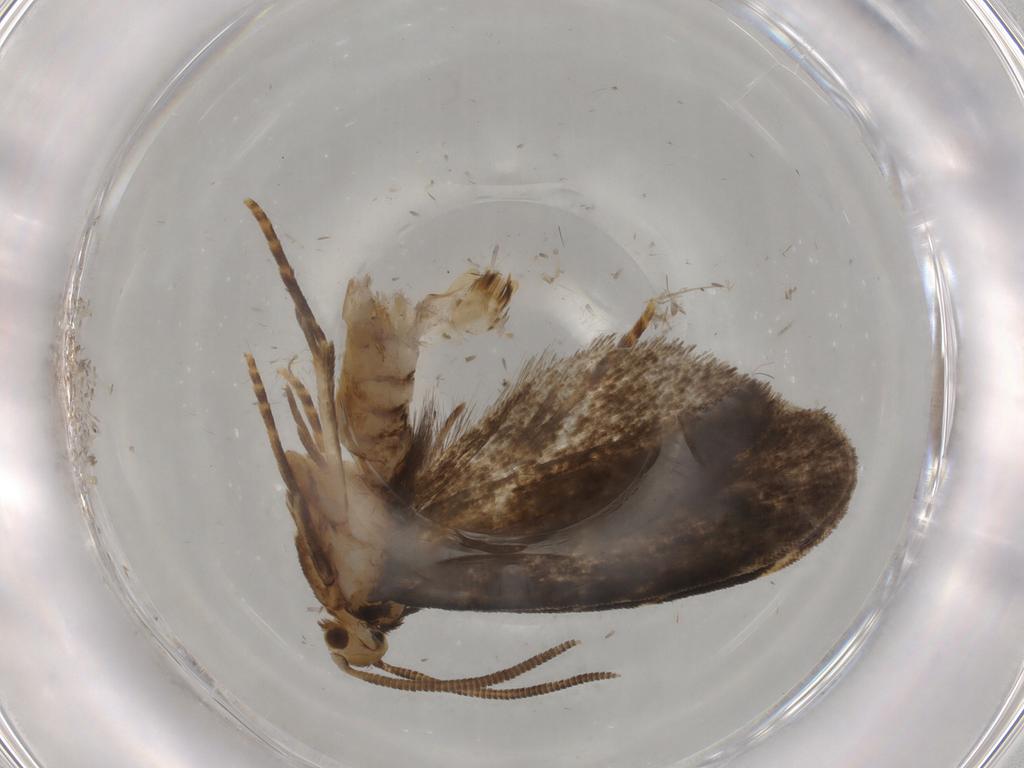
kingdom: Animalia
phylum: Arthropoda
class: Insecta
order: Lepidoptera
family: Dryadaulidae
